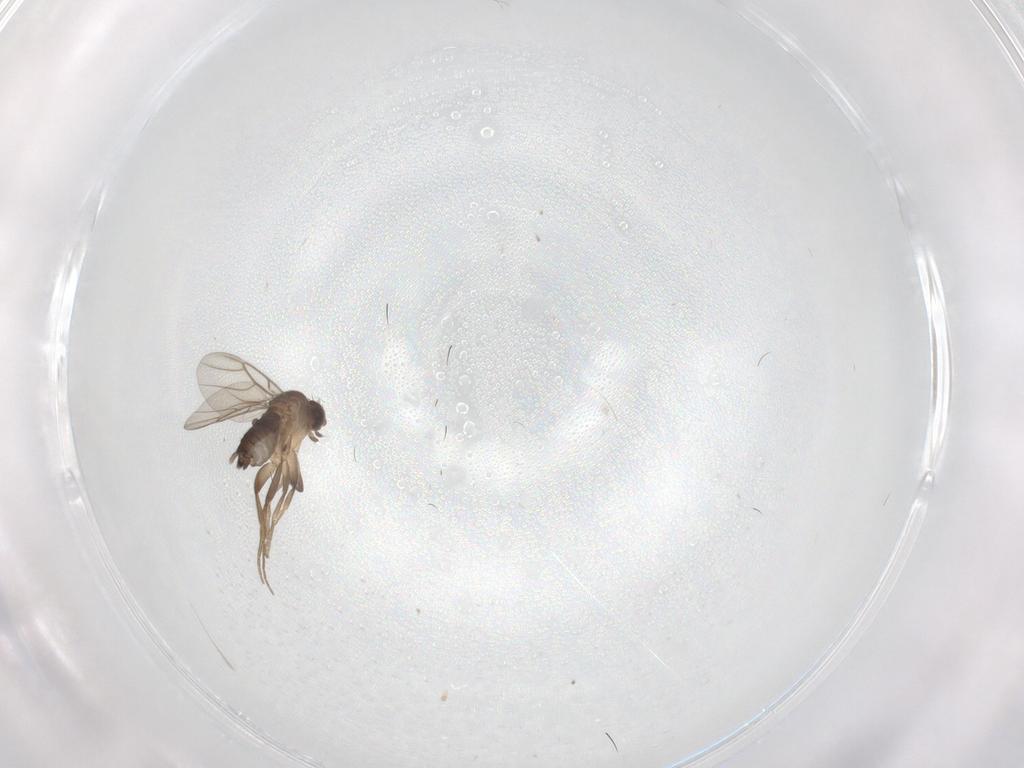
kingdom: Animalia
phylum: Arthropoda
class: Insecta
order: Diptera
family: Phoridae
